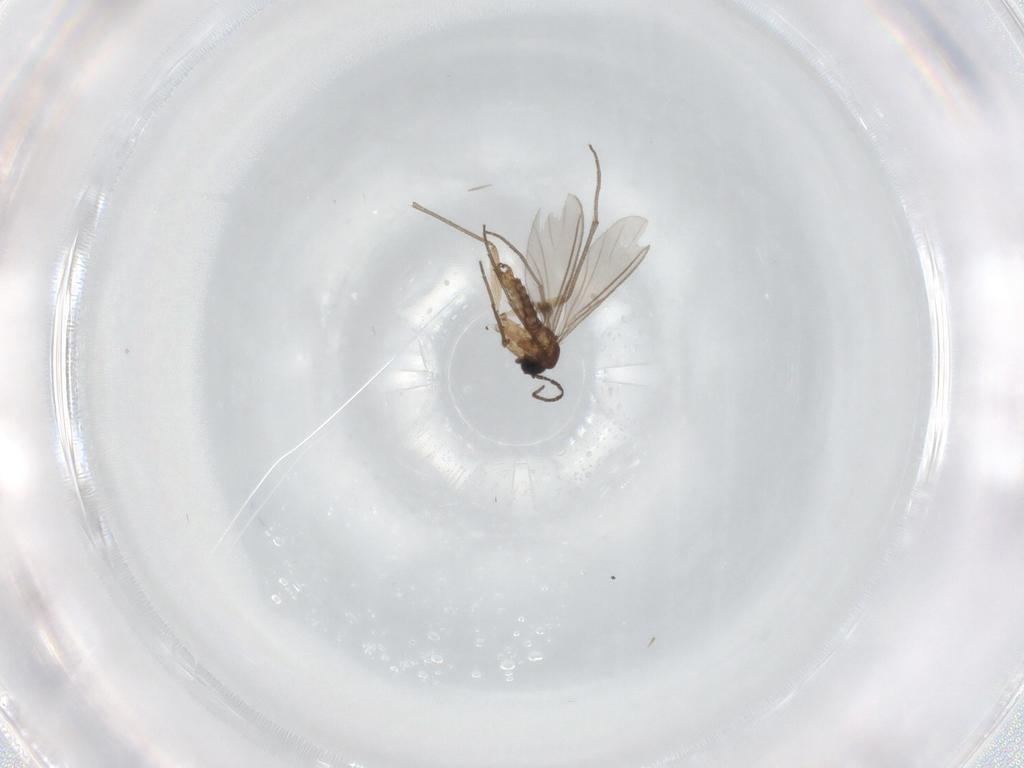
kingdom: Animalia
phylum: Arthropoda
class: Insecta
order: Diptera
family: Sciaridae
